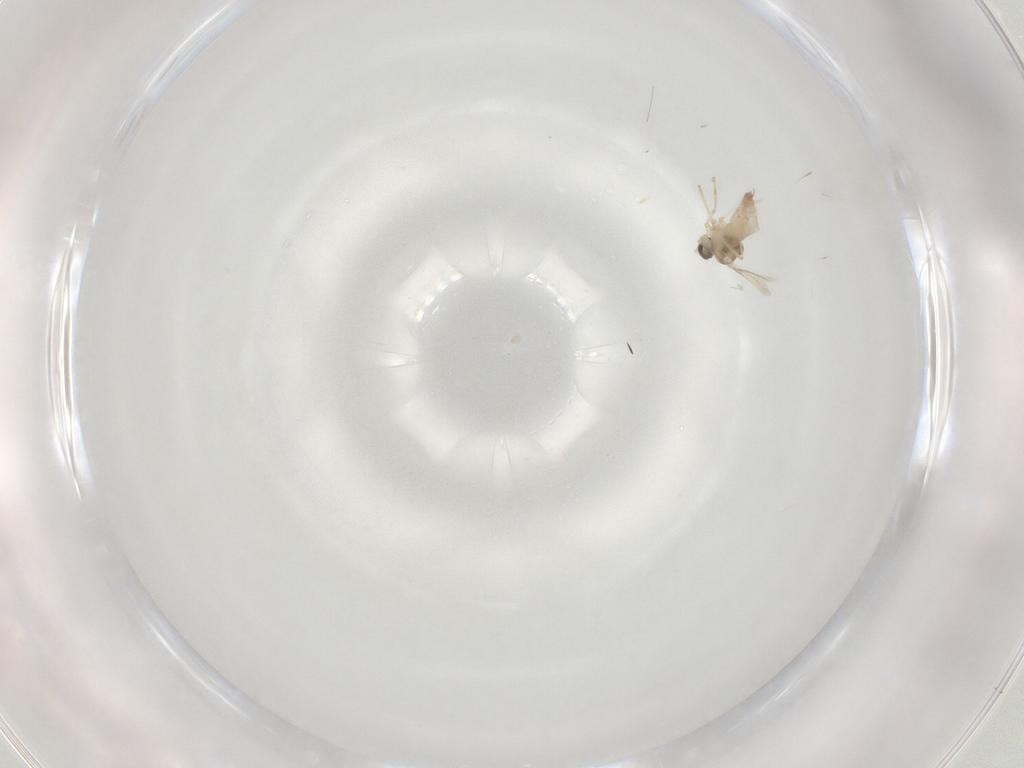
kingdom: Animalia
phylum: Arthropoda
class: Insecta
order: Diptera
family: Cecidomyiidae
